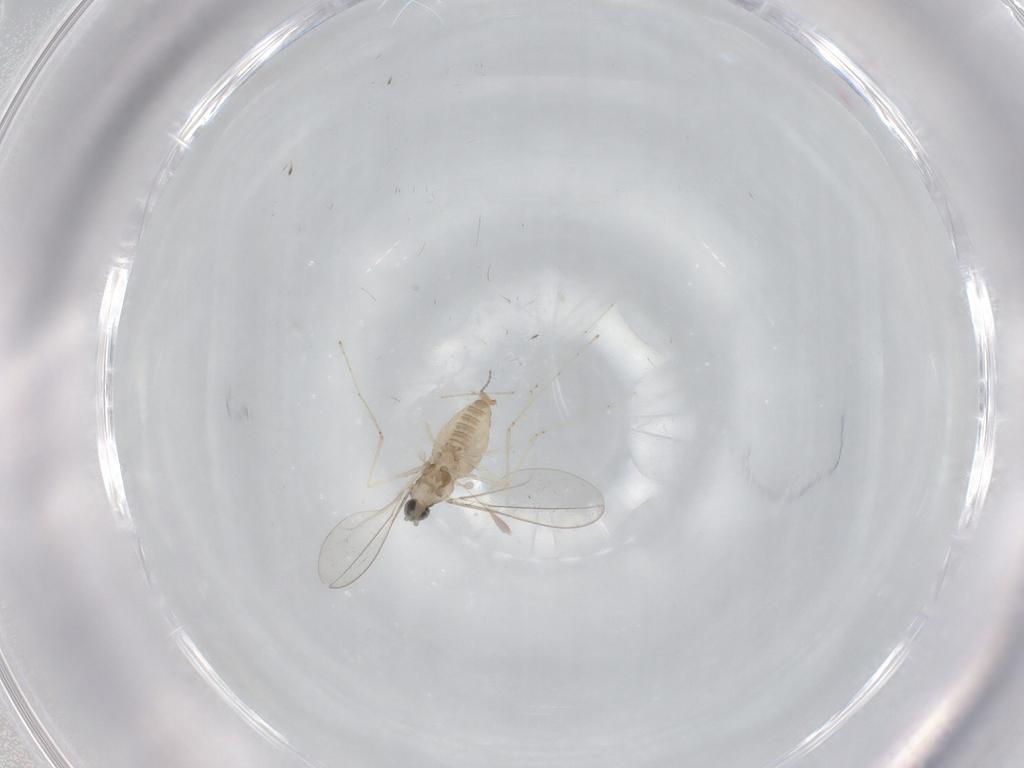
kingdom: Animalia
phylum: Arthropoda
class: Insecta
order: Diptera
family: Cecidomyiidae
